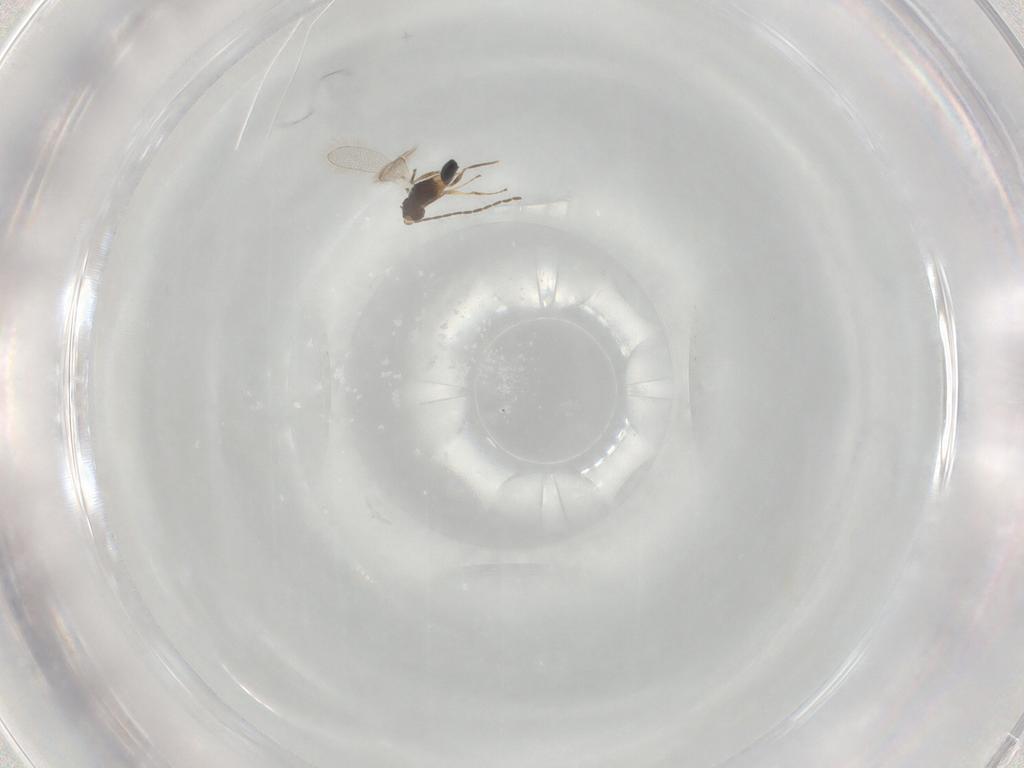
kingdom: Animalia
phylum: Arthropoda
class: Insecta
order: Hymenoptera
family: Mymaridae
